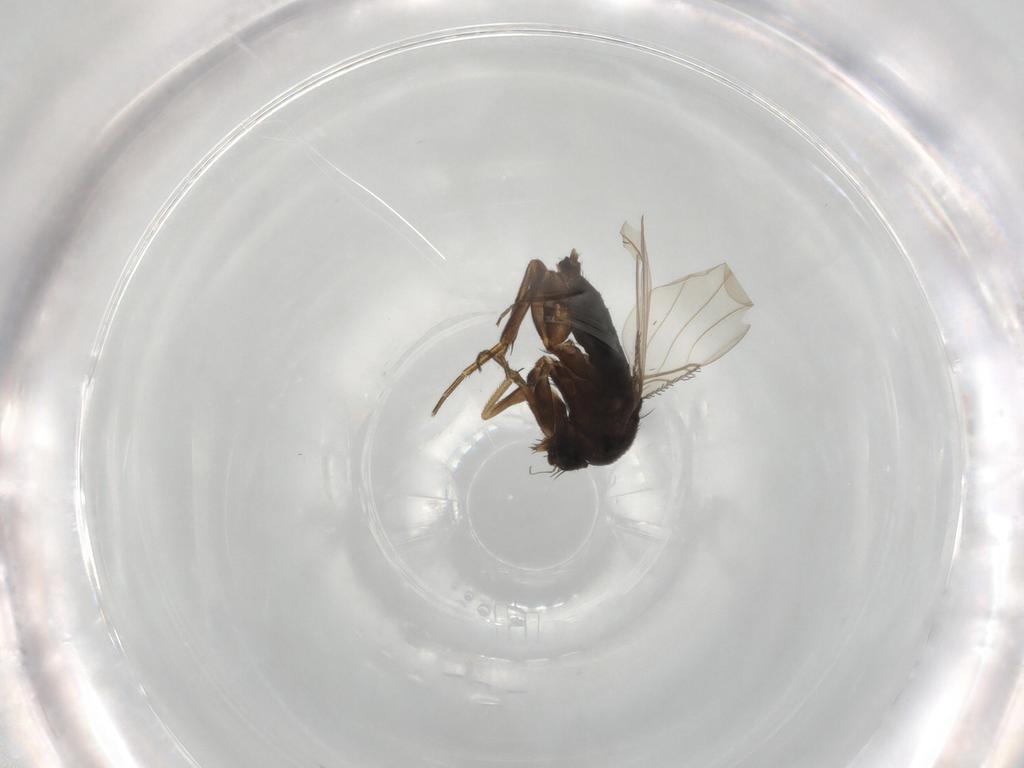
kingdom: Animalia
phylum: Arthropoda
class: Insecta
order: Diptera
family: Phoridae
